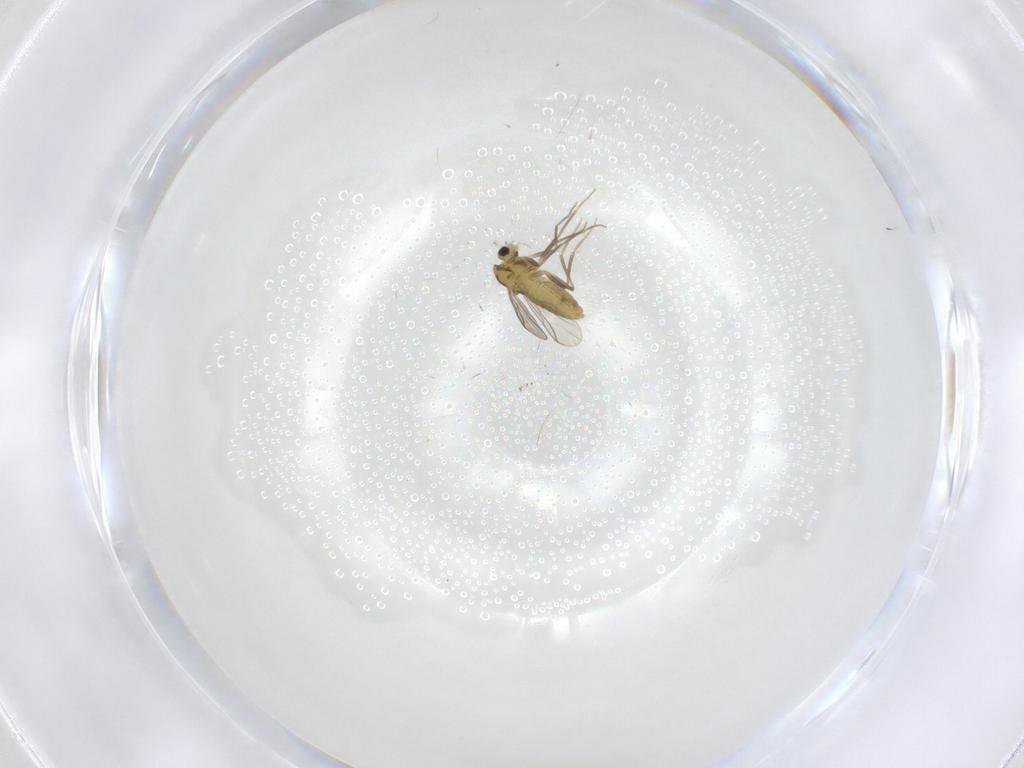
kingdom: Animalia
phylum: Arthropoda
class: Insecta
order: Diptera
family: Chironomidae
